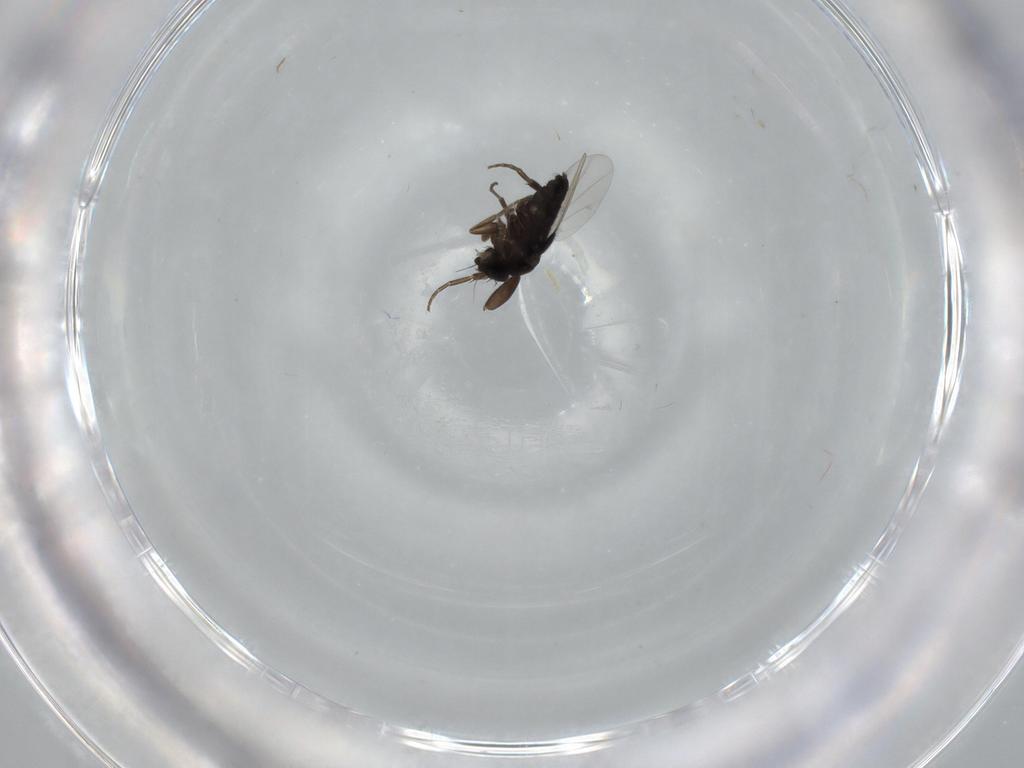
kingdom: Animalia
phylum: Arthropoda
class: Insecta
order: Diptera
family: Phoridae
